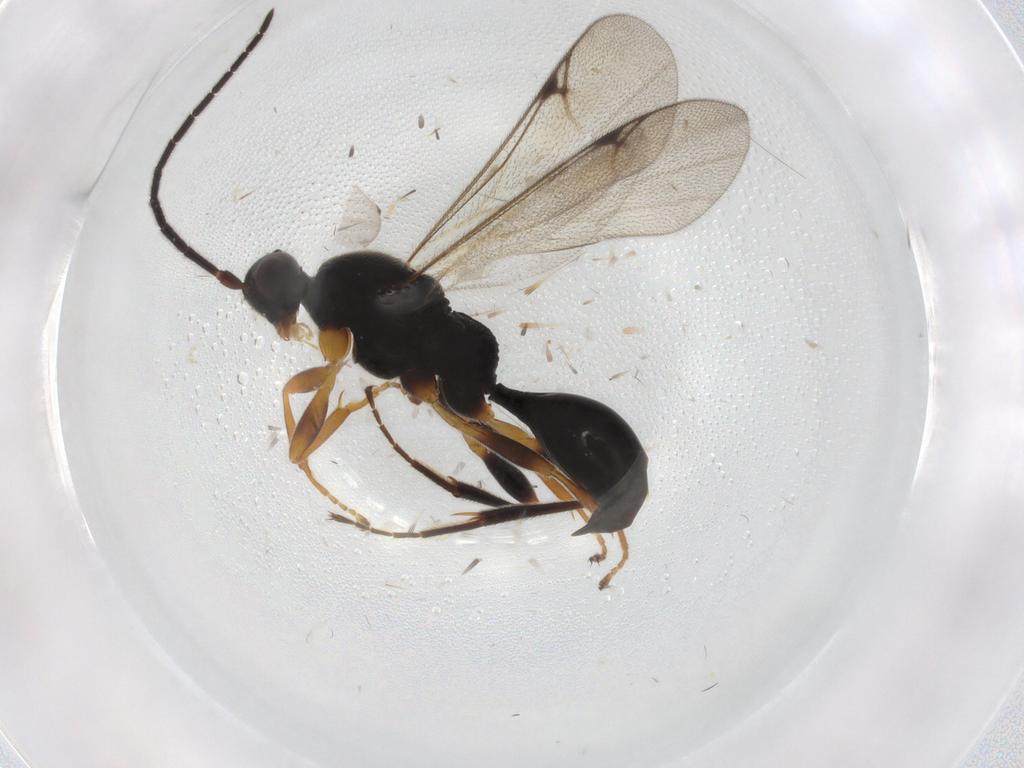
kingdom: Animalia
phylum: Arthropoda
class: Insecta
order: Hymenoptera
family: Proctotrupidae
